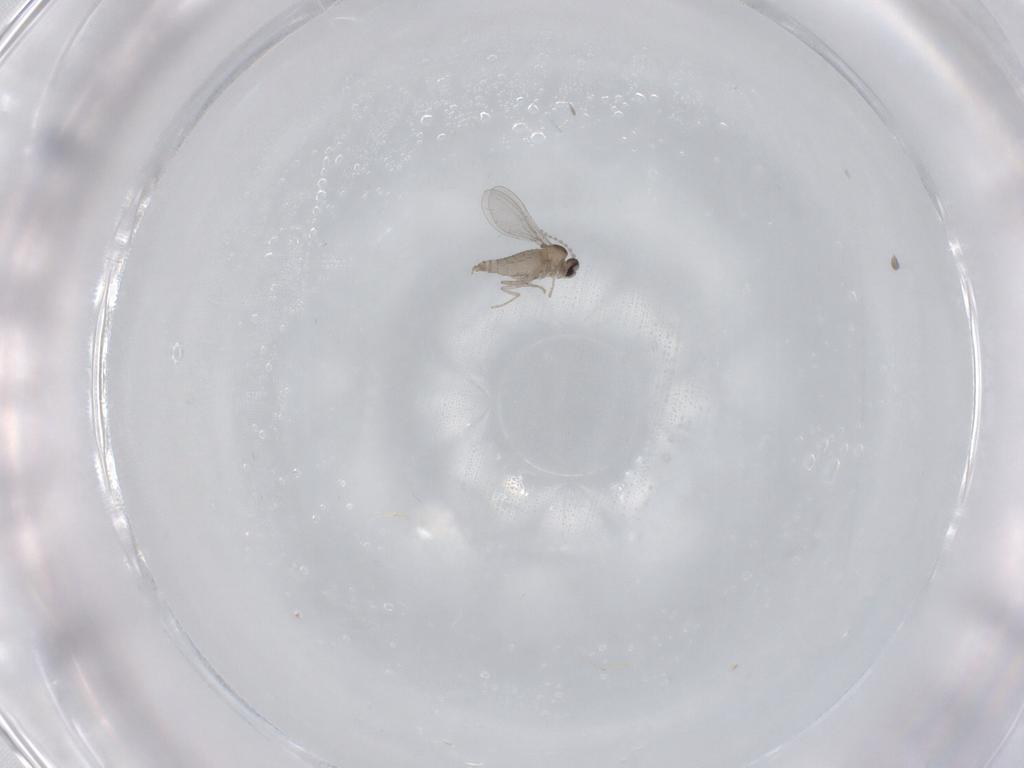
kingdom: Animalia
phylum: Arthropoda
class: Insecta
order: Diptera
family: Cecidomyiidae
